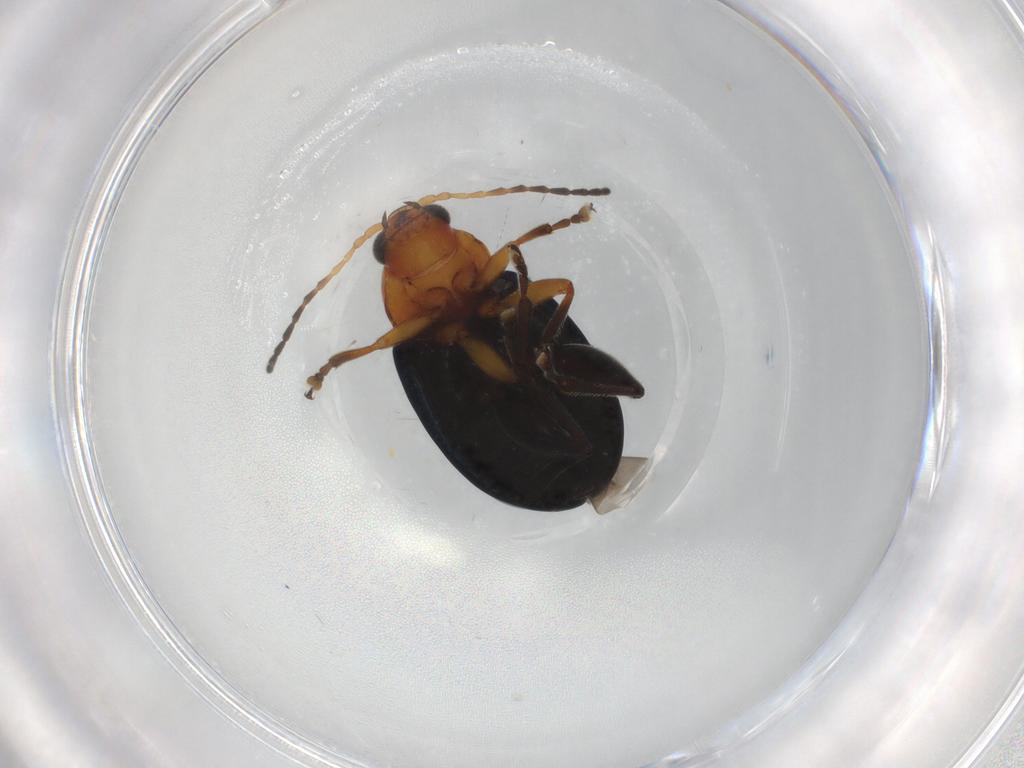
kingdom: Animalia
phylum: Arthropoda
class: Insecta
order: Coleoptera
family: Chrysomelidae
